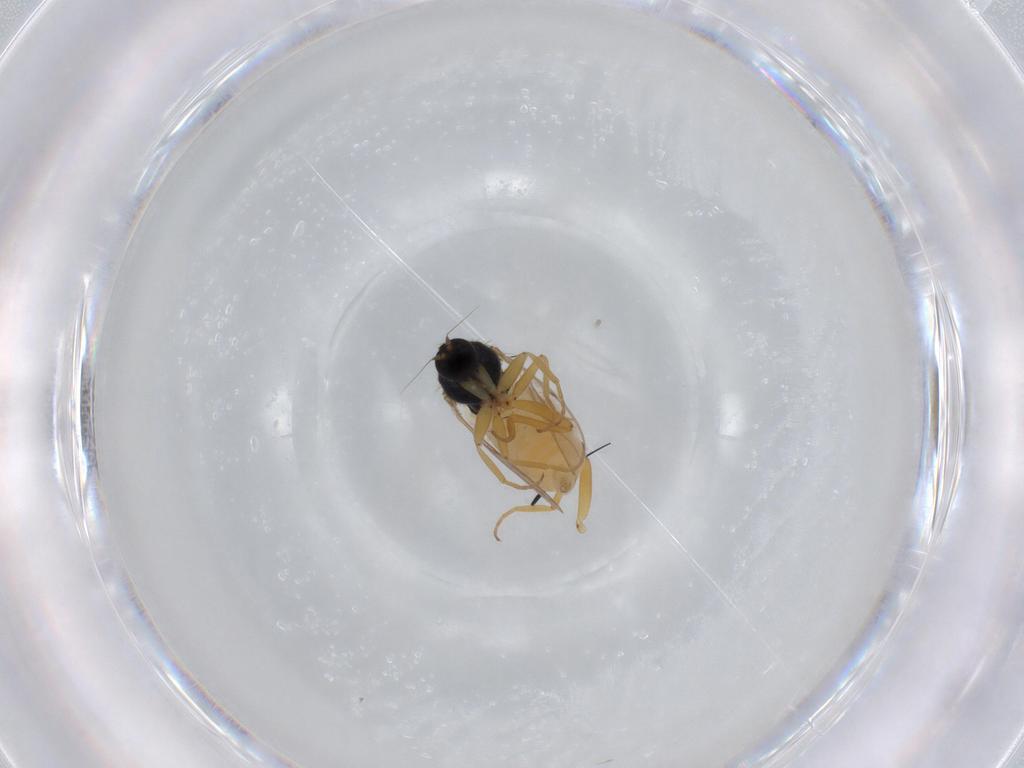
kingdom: Animalia
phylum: Arthropoda
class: Insecta
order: Diptera
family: Hybotidae
